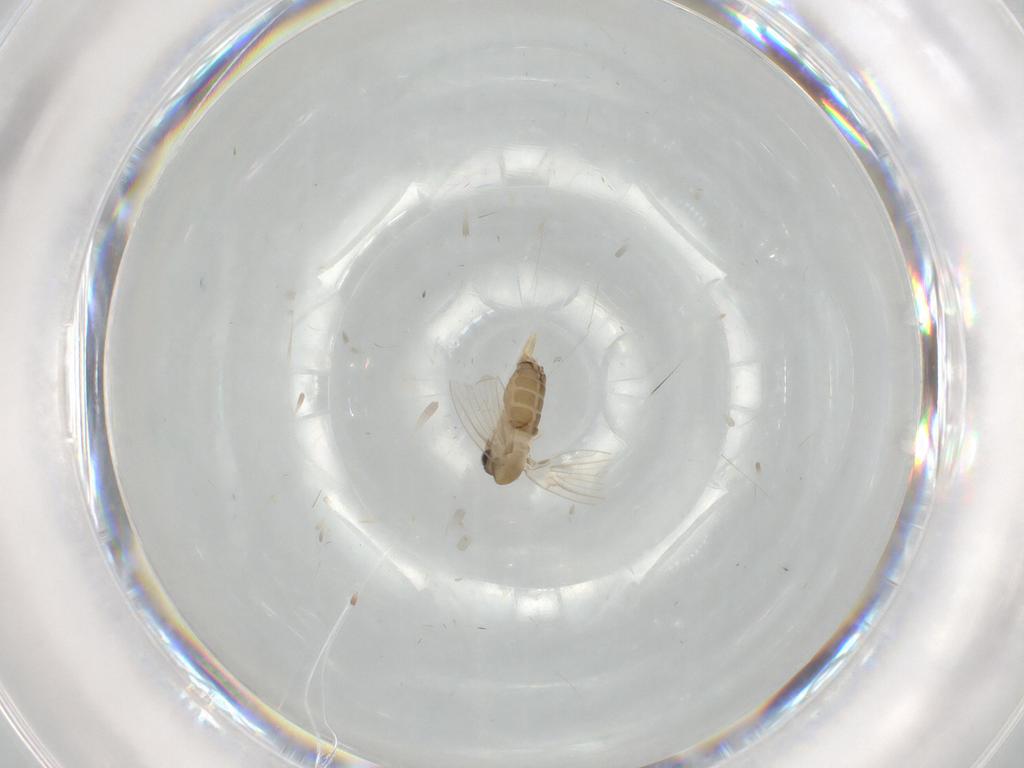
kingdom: Animalia
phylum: Arthropoda
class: Insecta
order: Diptera
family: Psychodidae
